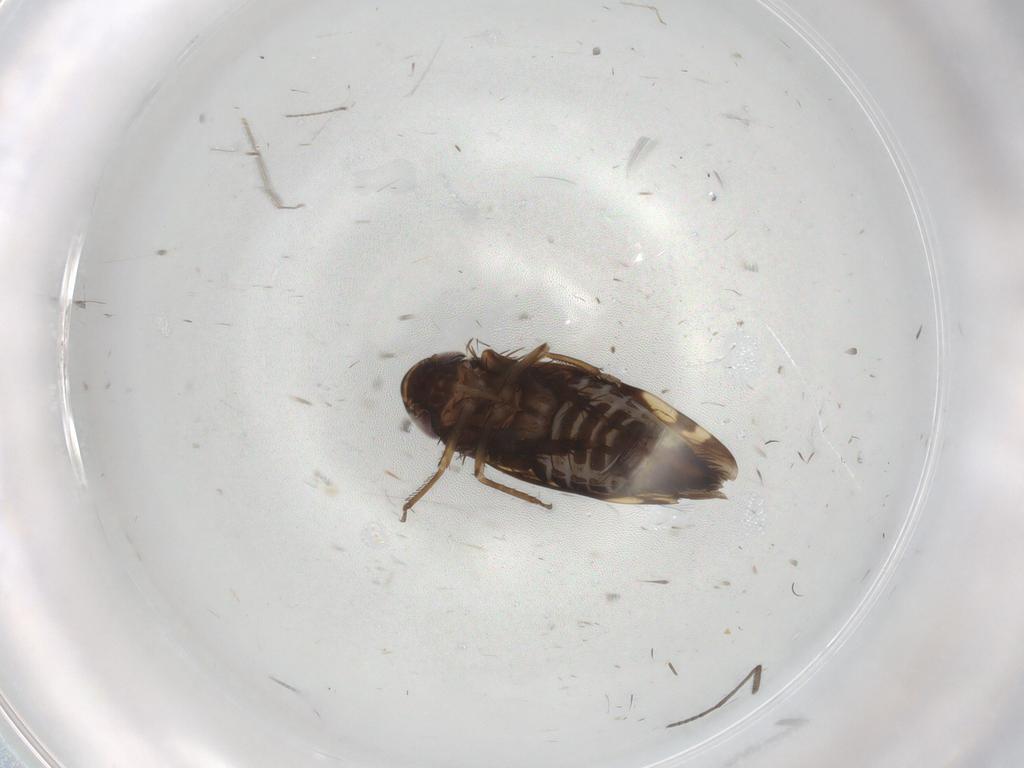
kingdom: Animalia
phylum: Arthropoda
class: Insecta
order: Hemiptera
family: Cicadellidae
